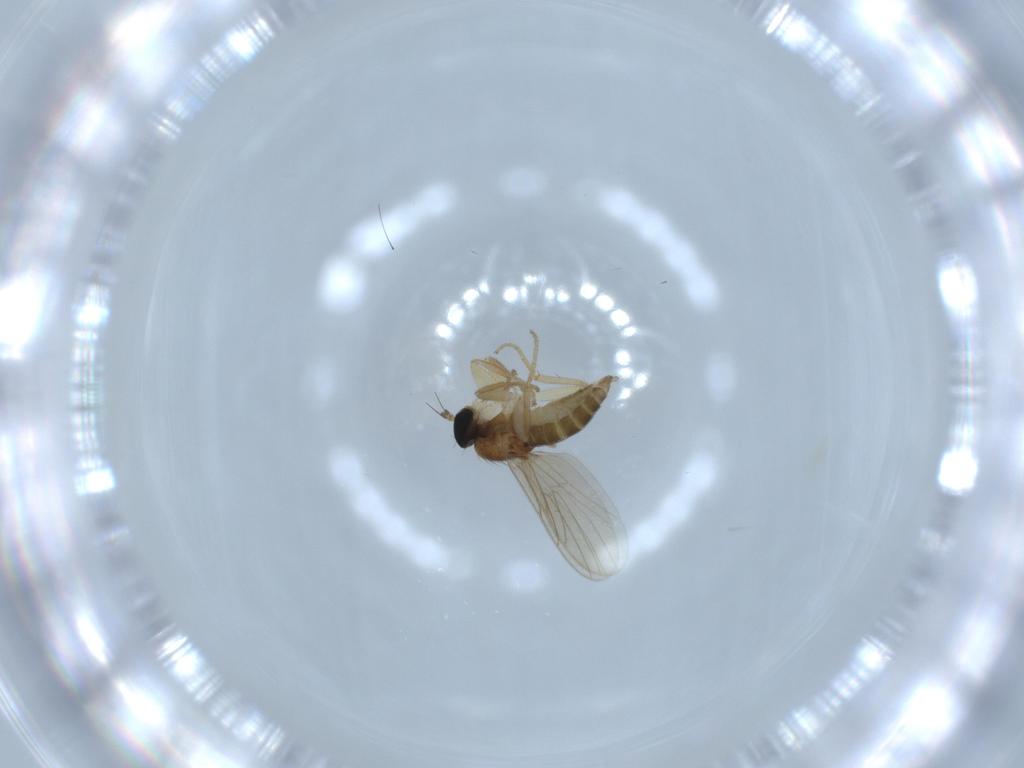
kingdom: Animalia
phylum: Arthropoda
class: Insecta
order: Diptera
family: Hybotidae
